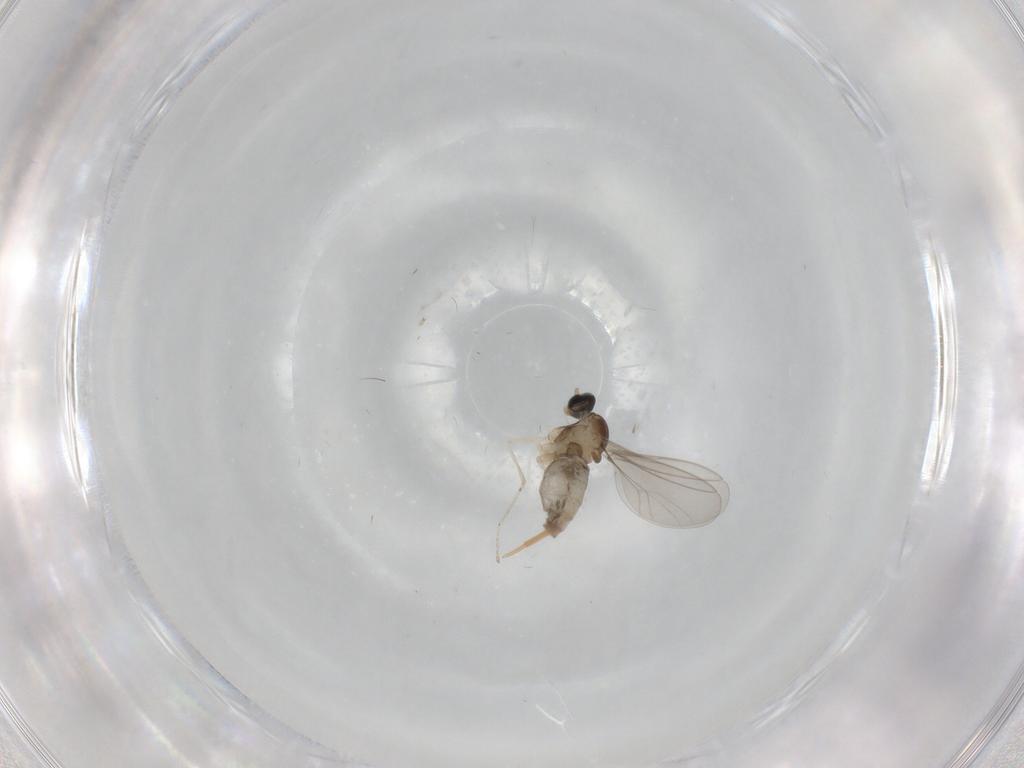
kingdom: Animalia
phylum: Arthropoda
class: Insecta
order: Diptera
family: Cecidomyiidae
